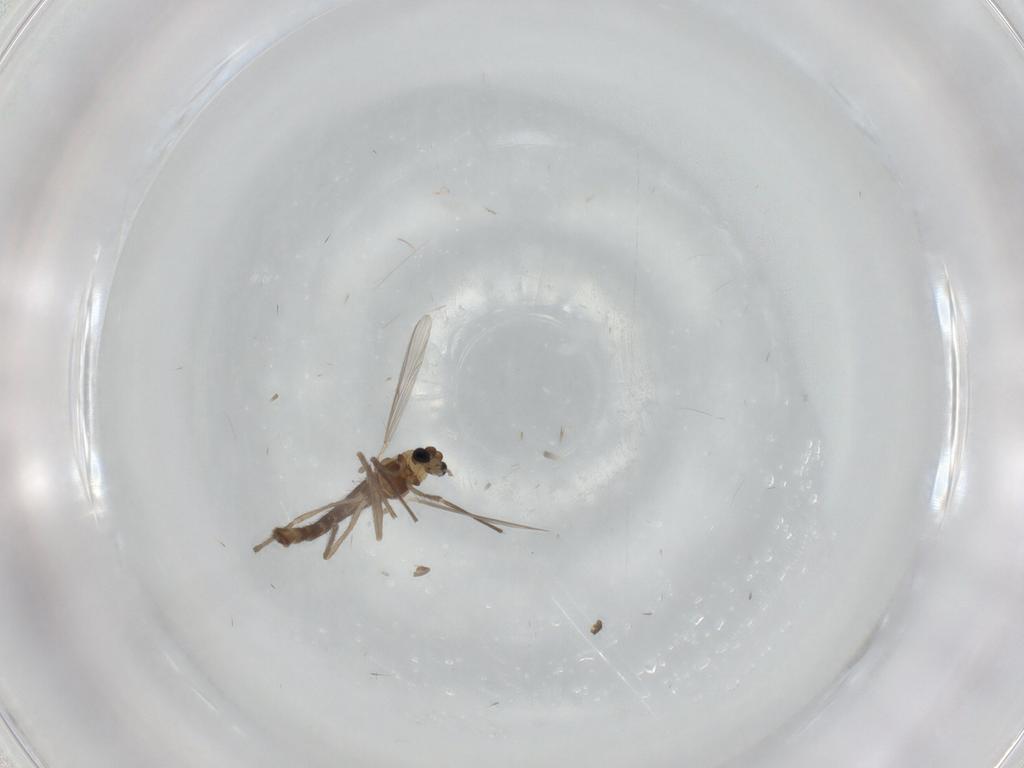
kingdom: Animalia
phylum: Arthropoda
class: Insecta
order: Diptera
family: Chironomidae
